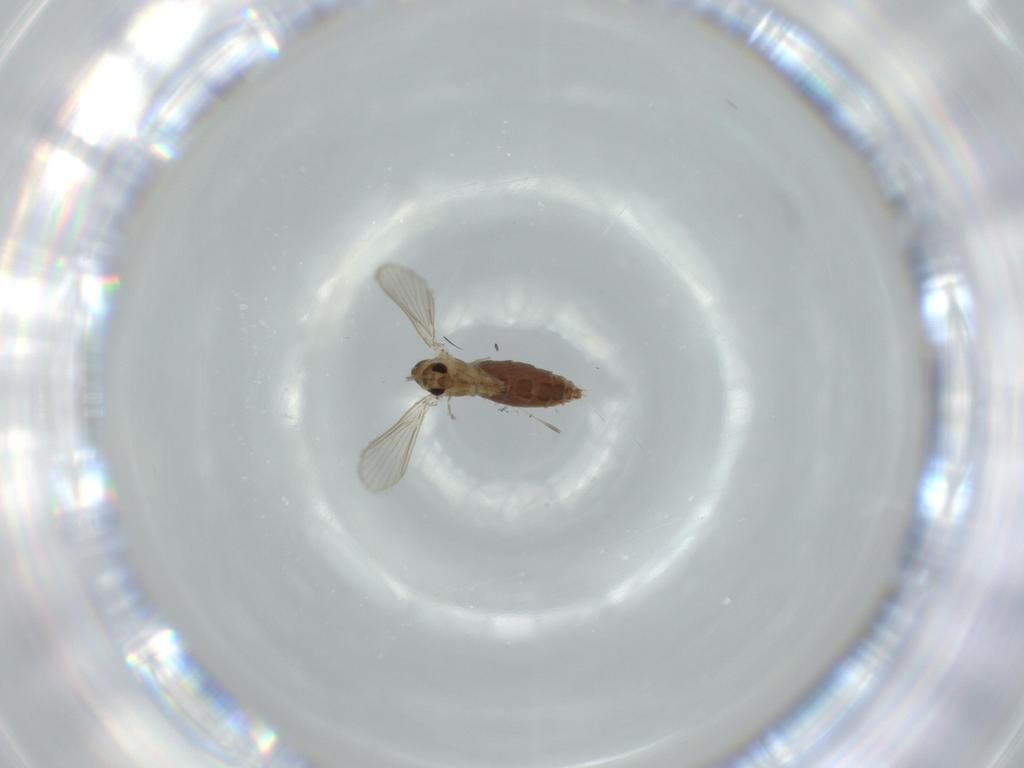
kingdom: Animalia
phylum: Arthropoda
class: Insecta
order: Diptera
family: Psychodidae
